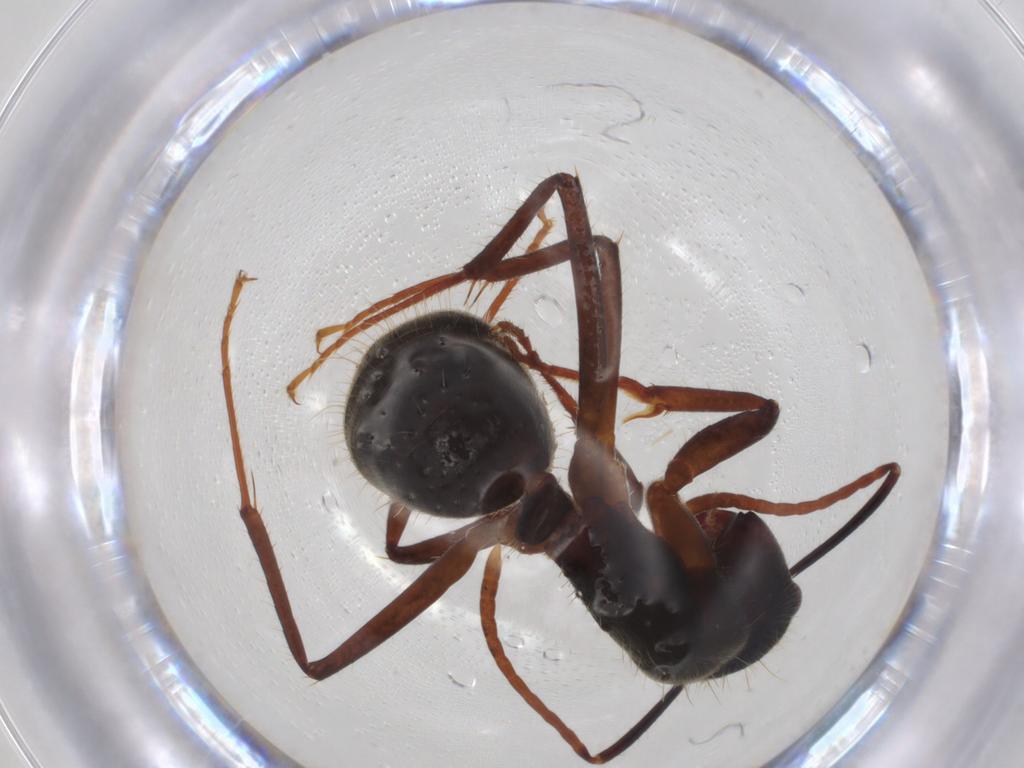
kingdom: Animalia
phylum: Arthropoda
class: Insecta
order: Hymenoptera
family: Formicidae
